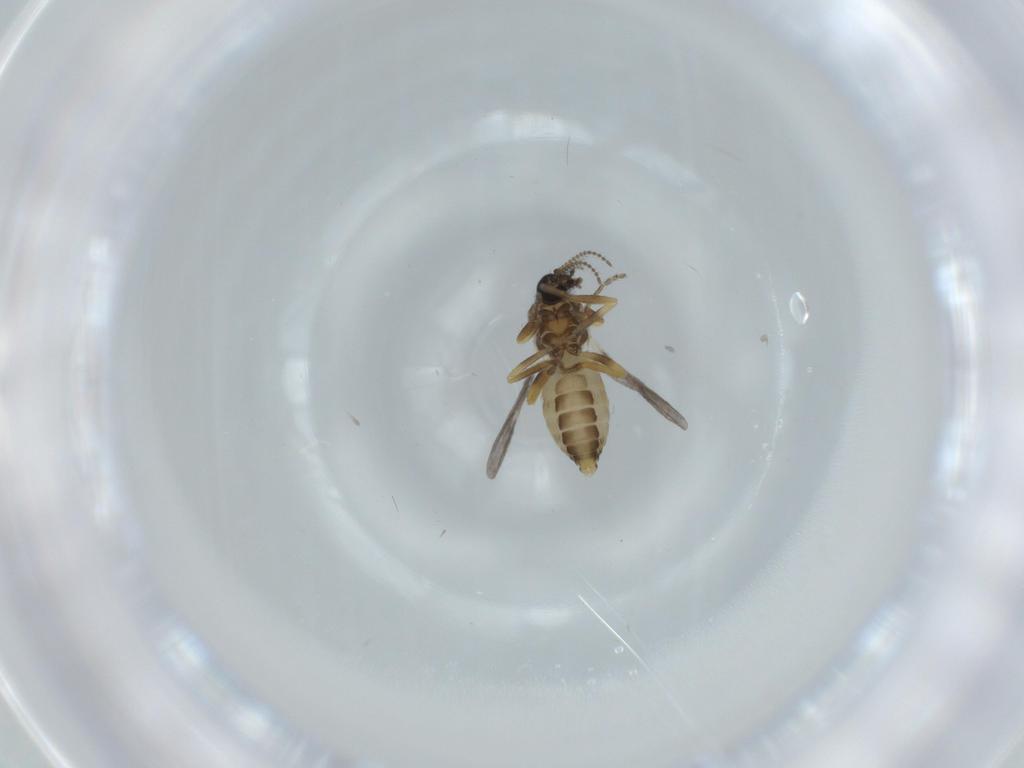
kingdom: Animalia
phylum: Arthropoda
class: Insecta
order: Diptera
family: Ceratopogonidae
